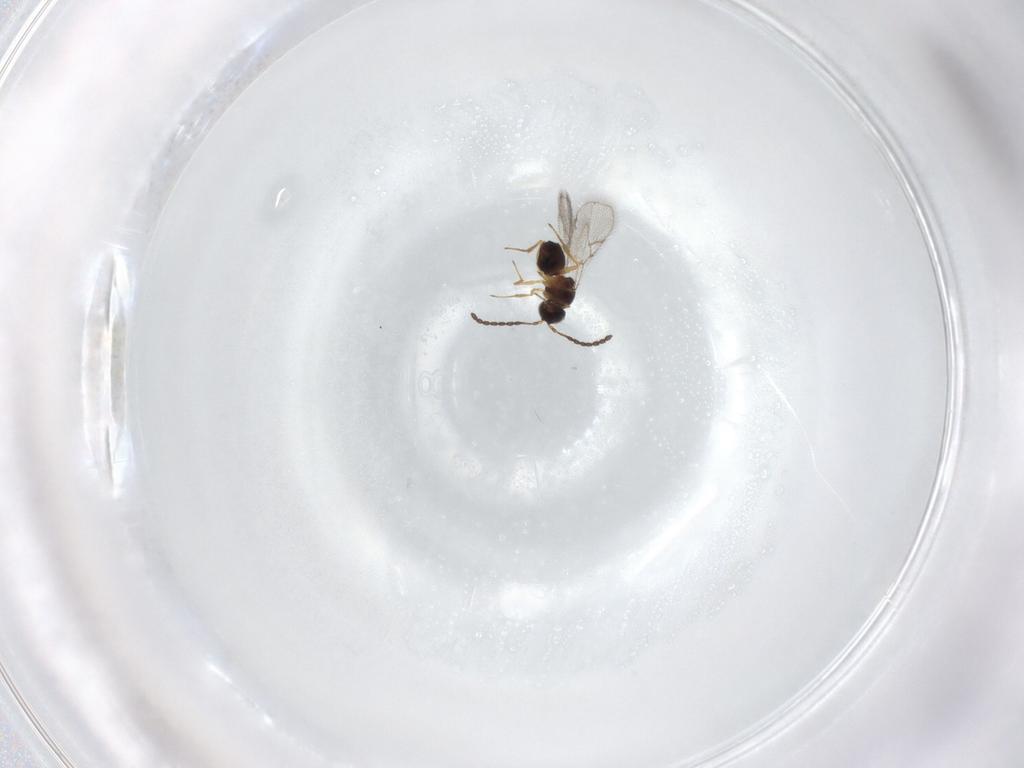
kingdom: Animalia
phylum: Arthropoda
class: Insecta
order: Hymenoptera
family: Figitidae
